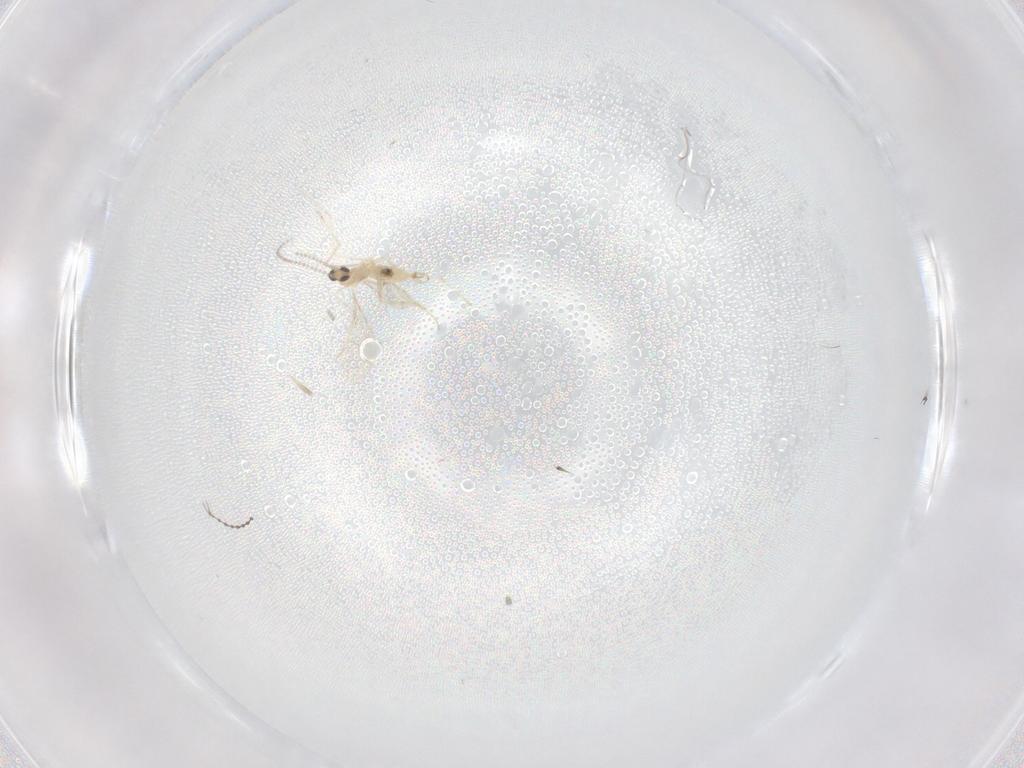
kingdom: Animalia
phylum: Arthropoda
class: Insecta
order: Diptera
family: Cecidomyiidae
